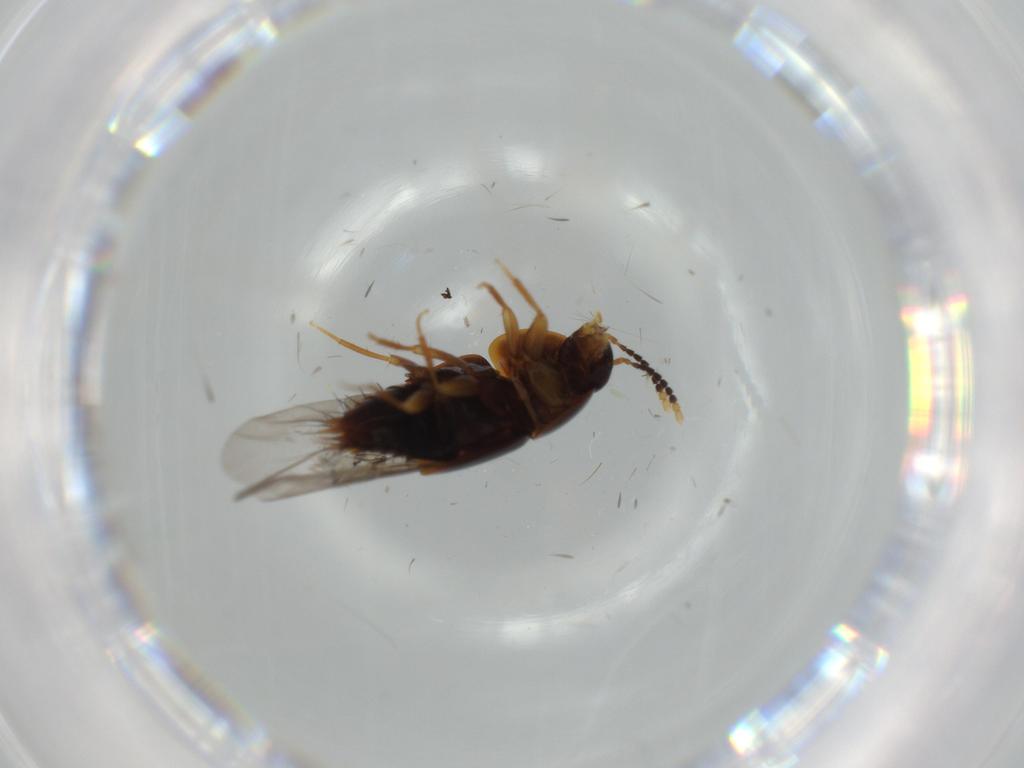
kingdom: Animalia
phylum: Arthropoda
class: Insecta
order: Coleoptera
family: Staphylinidae
